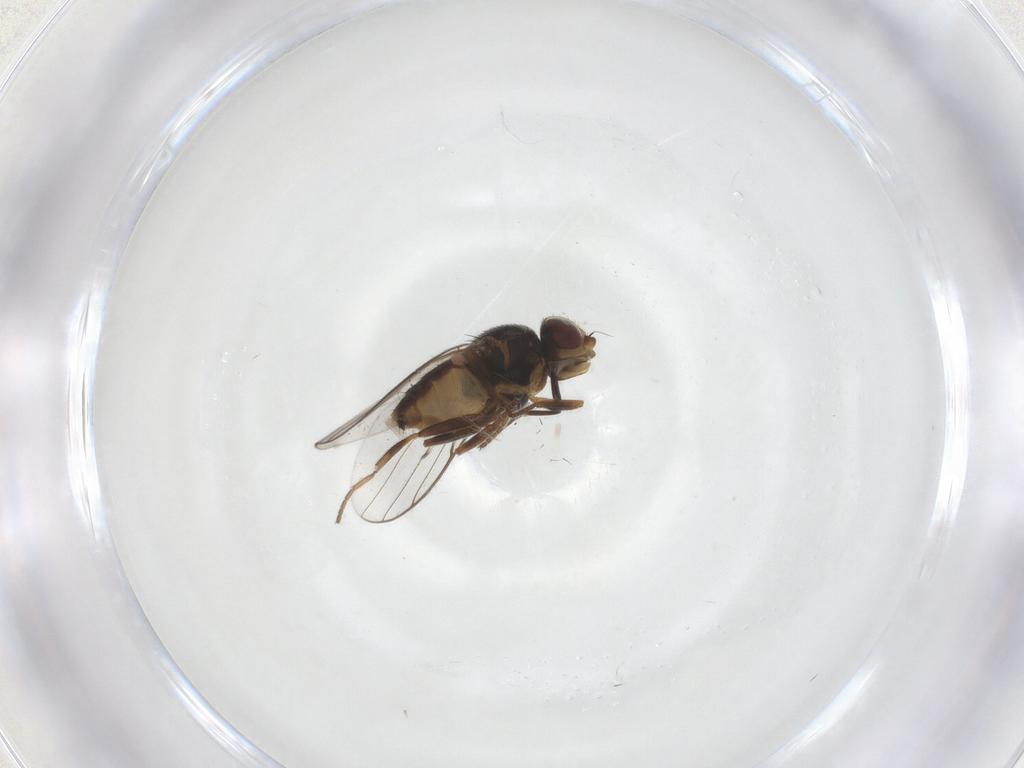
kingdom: Animalia
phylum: Arthropoda
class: Insecta
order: Diptera
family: Chloropidae
